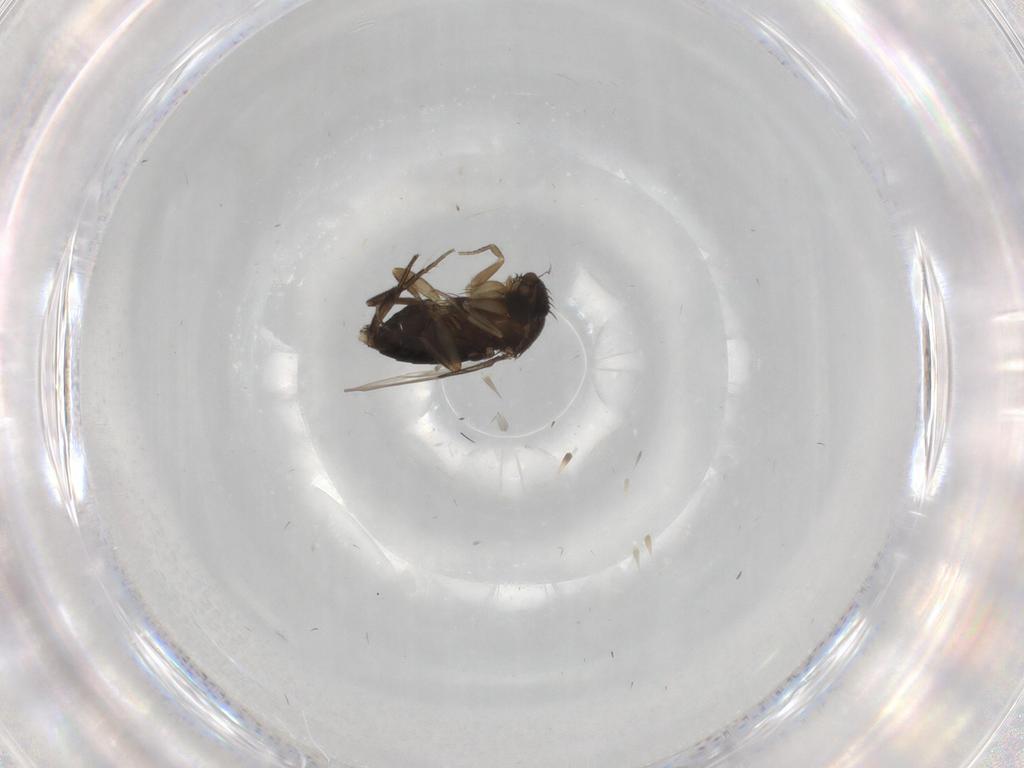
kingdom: Animalia
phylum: Arthropoda
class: Insecta
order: Diptera
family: Phoridae
